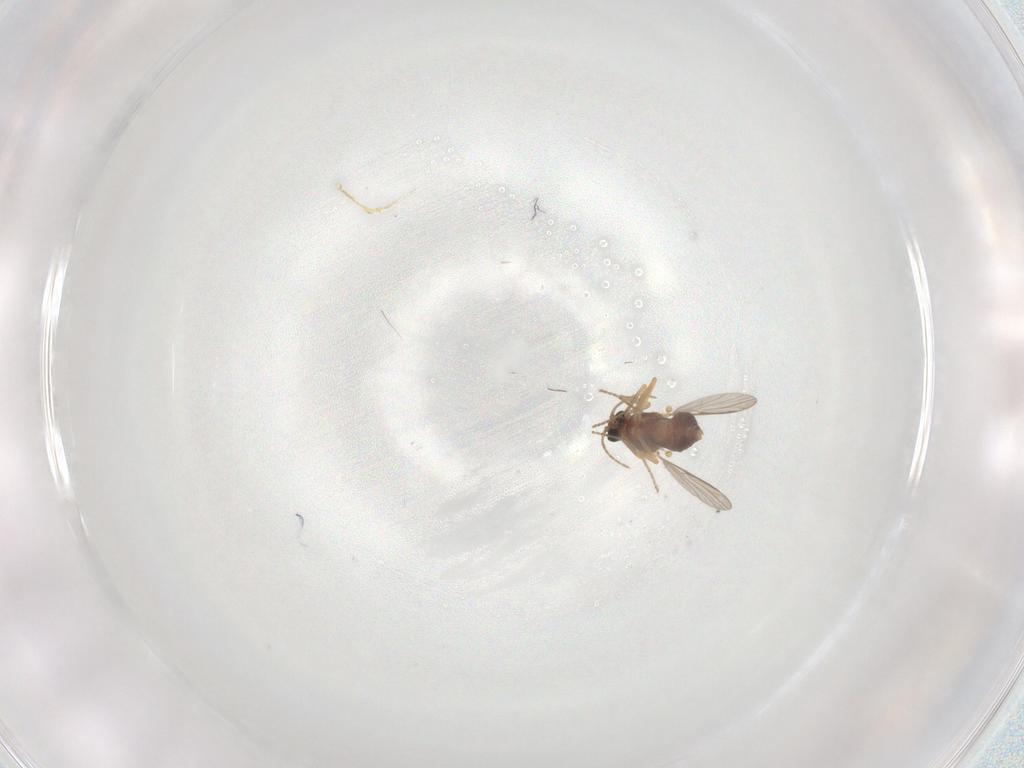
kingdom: Animalia
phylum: Arthropoda
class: Insecta
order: Diptera
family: Ceratopogonidae
